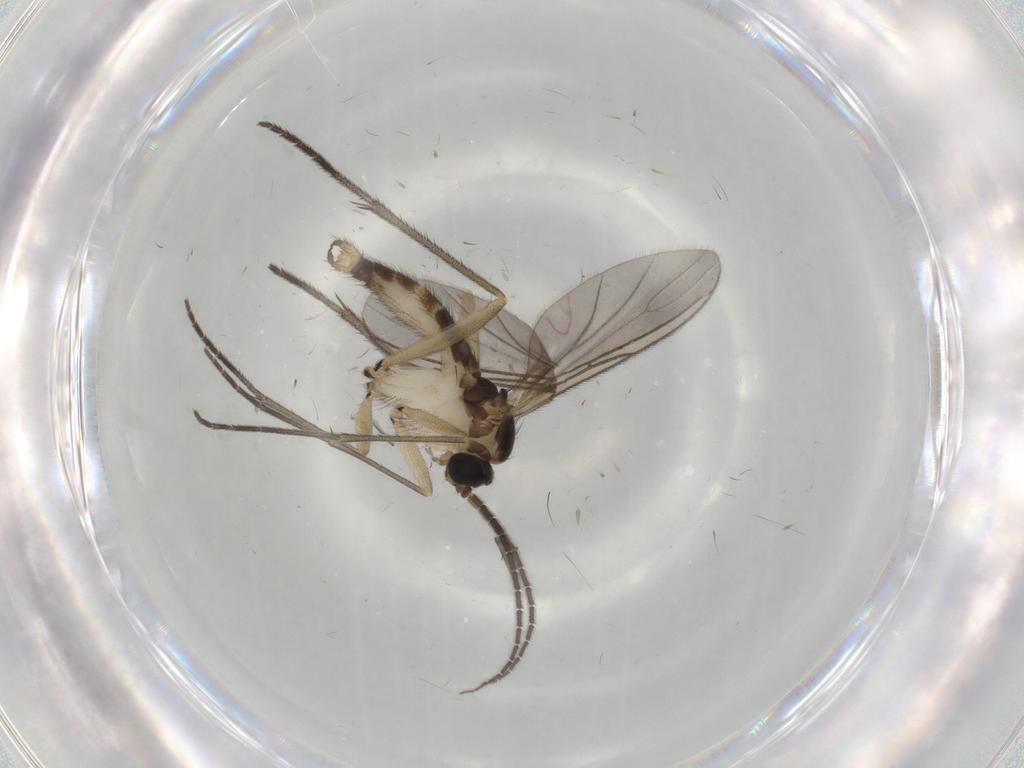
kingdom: Animalia
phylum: Arthropoda
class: Insecta
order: Diptera
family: Sciaridae
